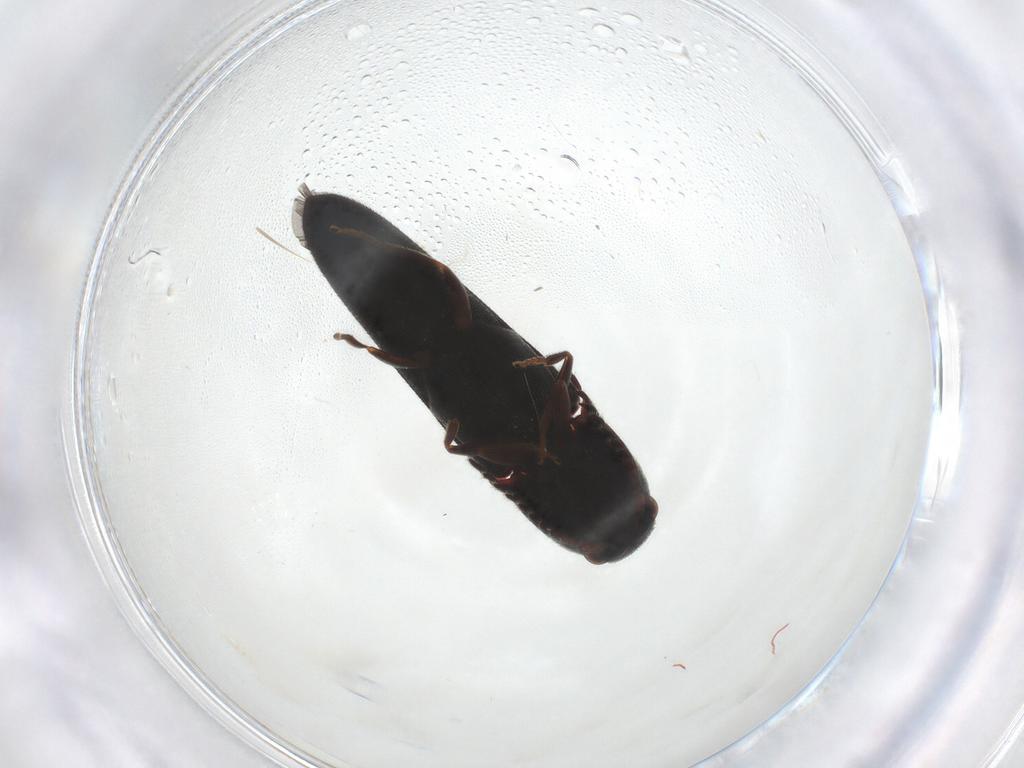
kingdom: Animalia
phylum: Arthropoda
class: Insecta
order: Coleoptera
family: Eucnemidae
